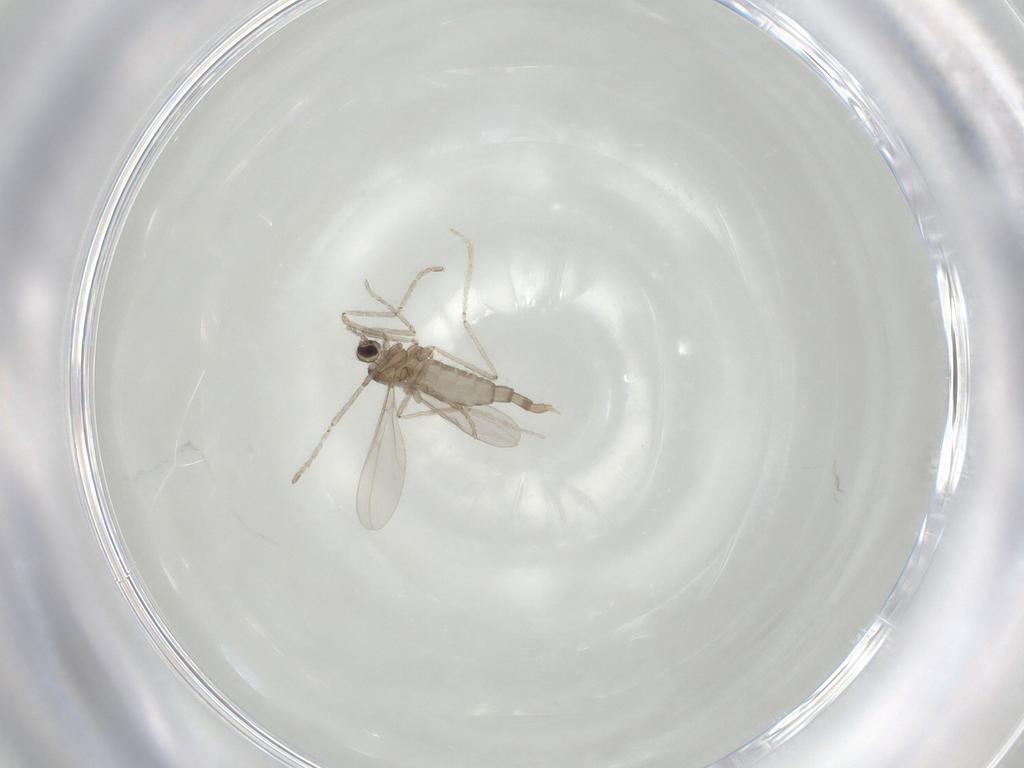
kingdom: Animalia
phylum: Arthropoda
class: Insecta
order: Diptera
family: Cecidomyiidae
